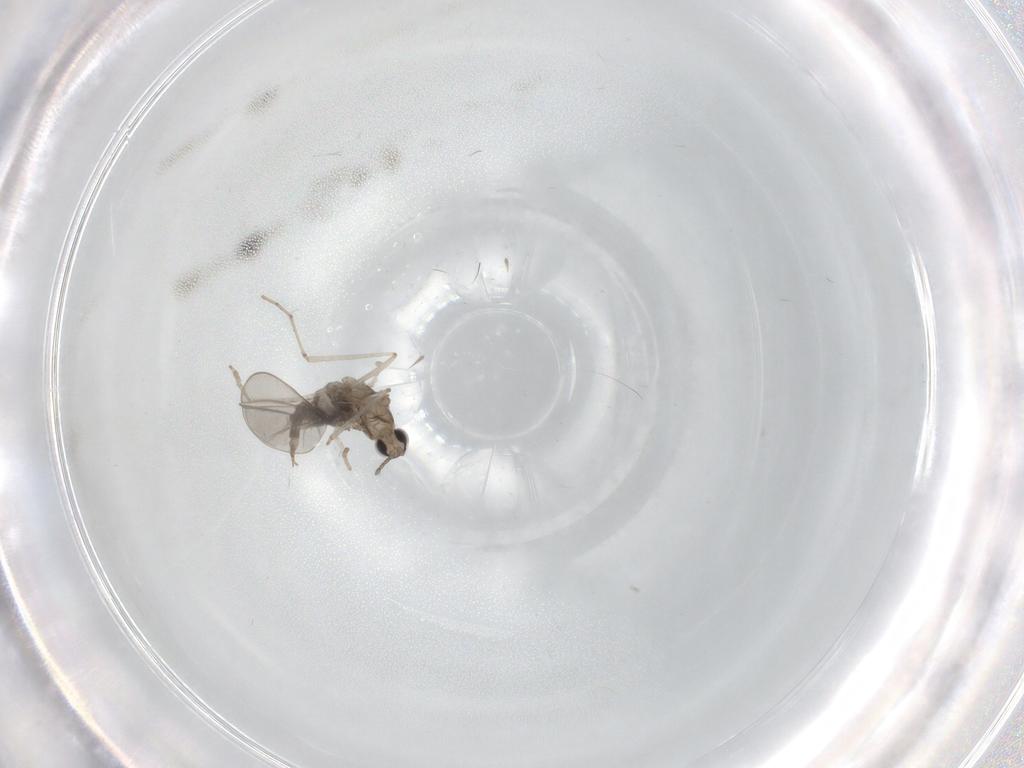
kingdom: Animalia
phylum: Arthropoda
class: Insecta
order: Diptera
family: Cecidomyiidae
